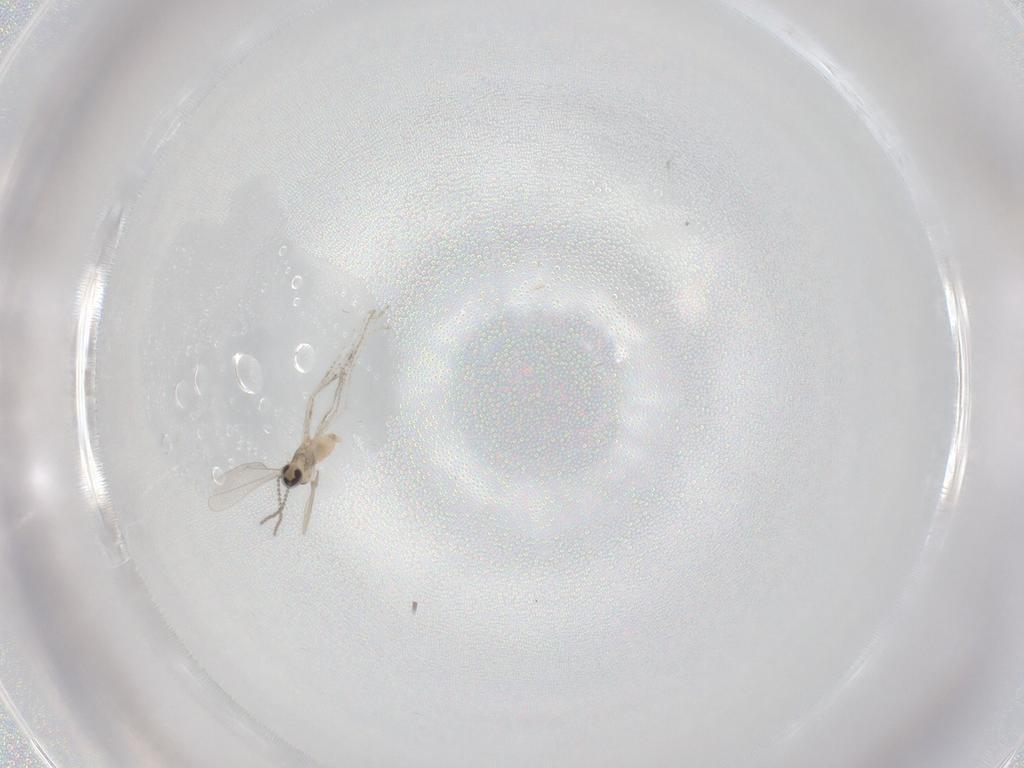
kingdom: Animalia
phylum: Arthropoda
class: Insecta
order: Diptera
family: Cecidomyiidae
